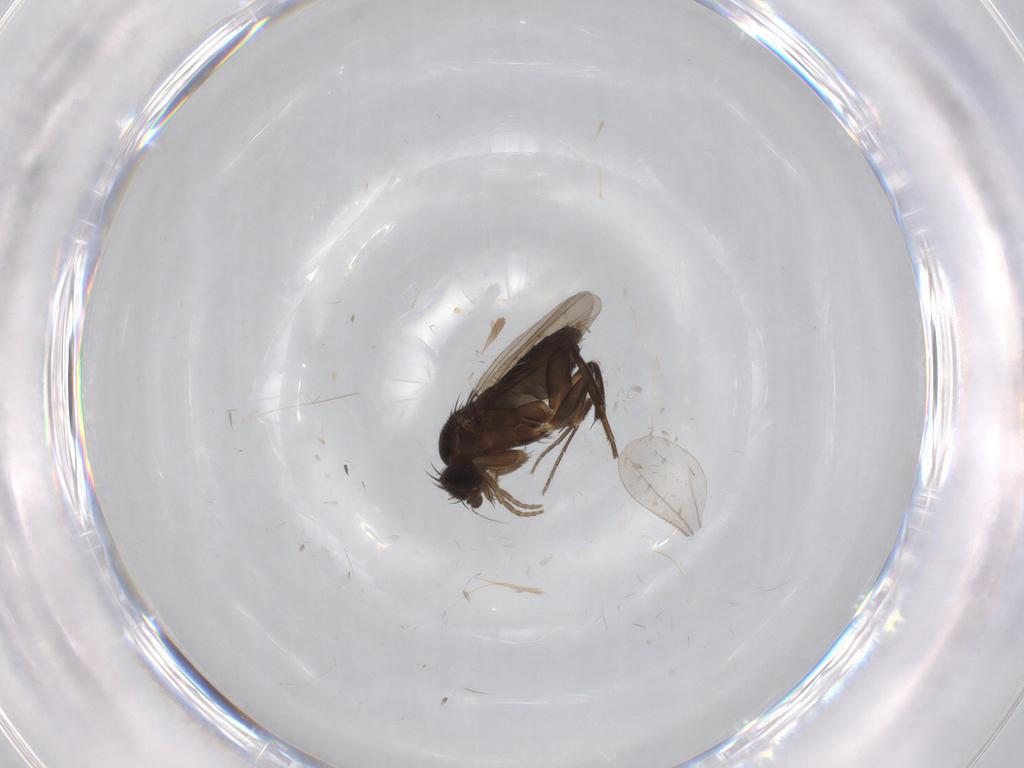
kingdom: Animalia
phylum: Arthropoda
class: Insecta
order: Diptera
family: Phoridae
